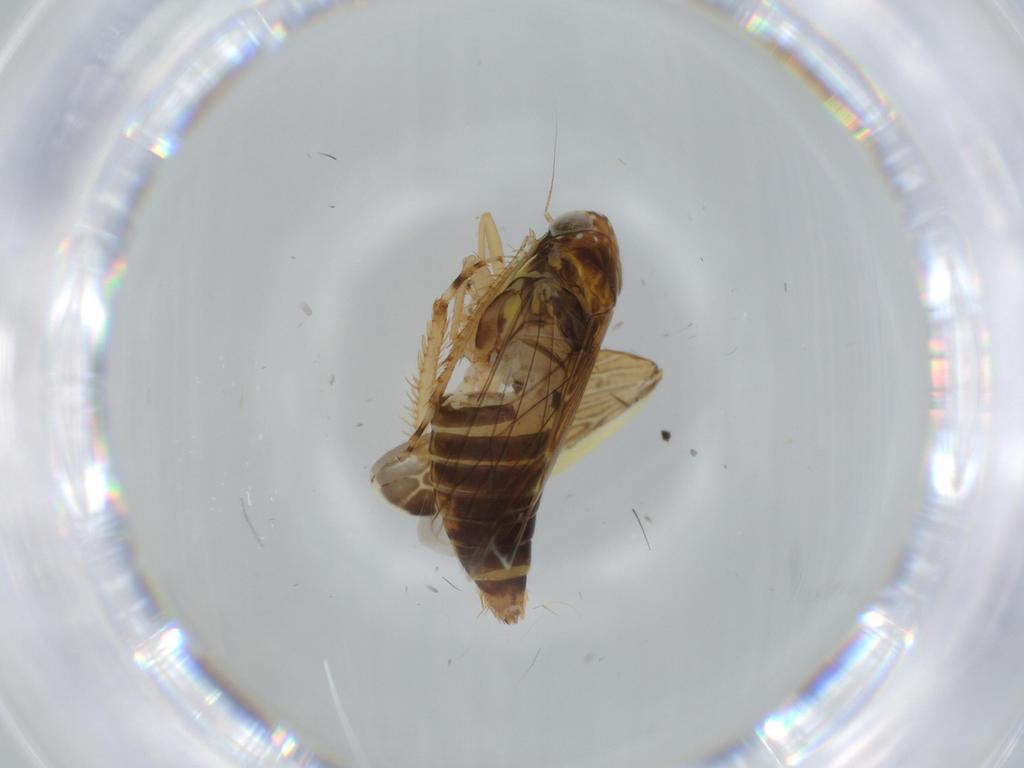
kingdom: Animalia
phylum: Arthropoda
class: Insecta
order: Hemiptera
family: Cicadellidae
